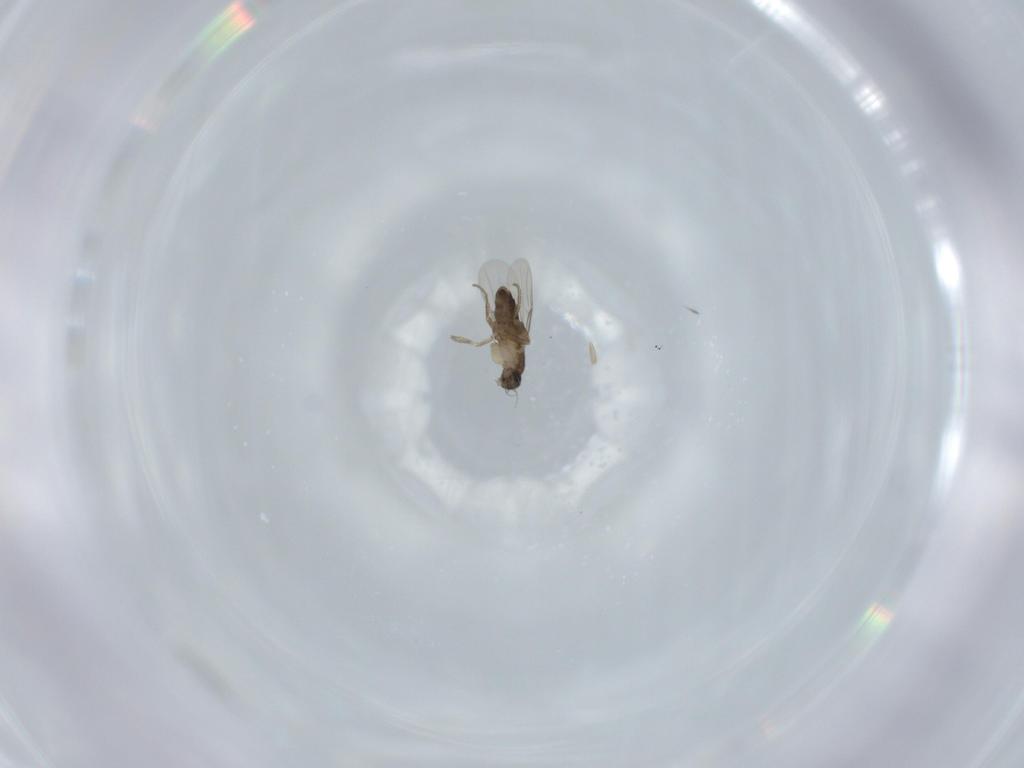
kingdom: Animalia
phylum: Arthropoda
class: Insecta
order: Diptera
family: Phoridae
